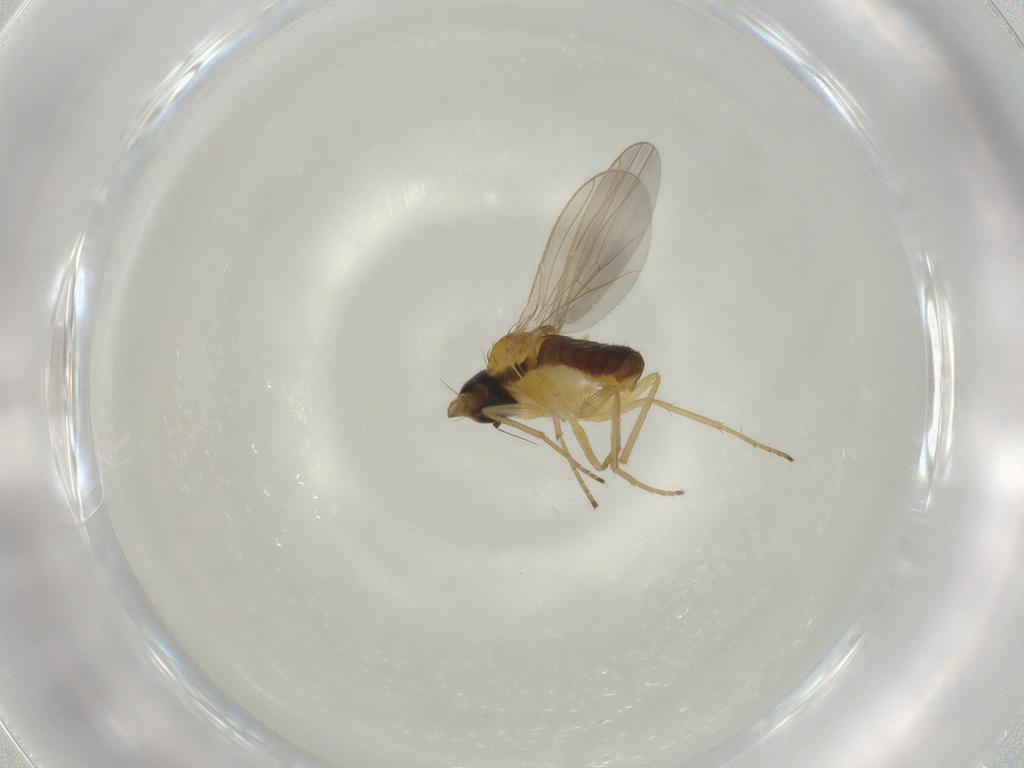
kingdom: Animalia
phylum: Arthropoda
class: Insecta
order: Diptera
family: Dolichopodidae
